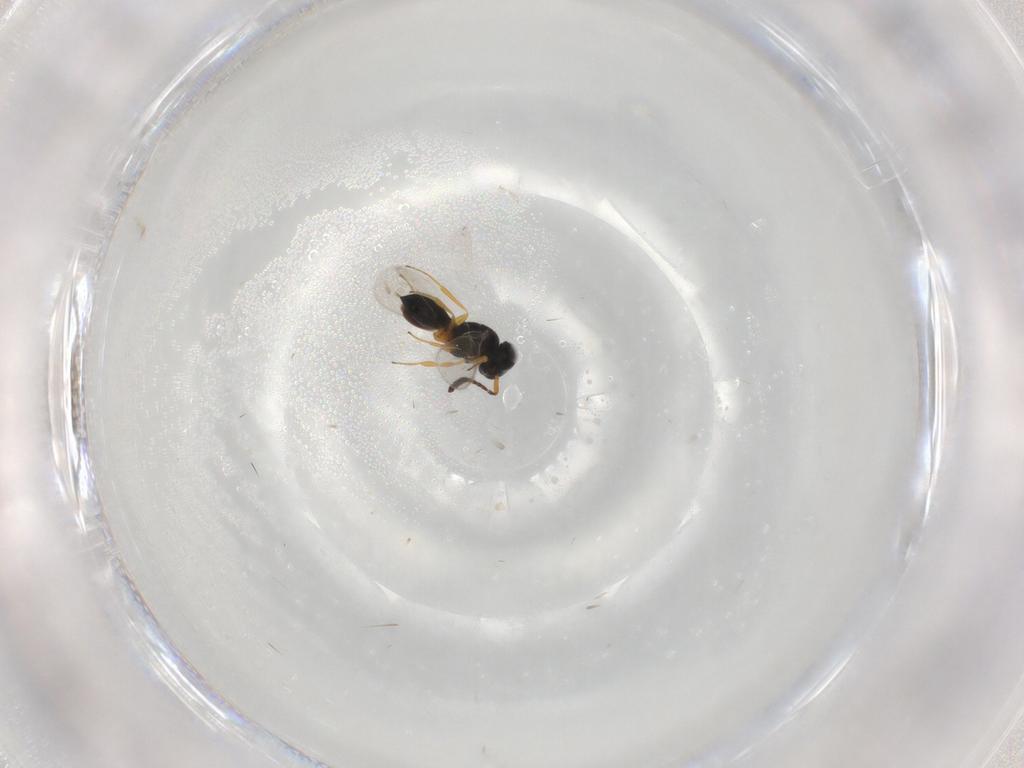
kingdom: Animalia
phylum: Arthropoda
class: Insecta
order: Hymenoptera
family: Scelionidae
